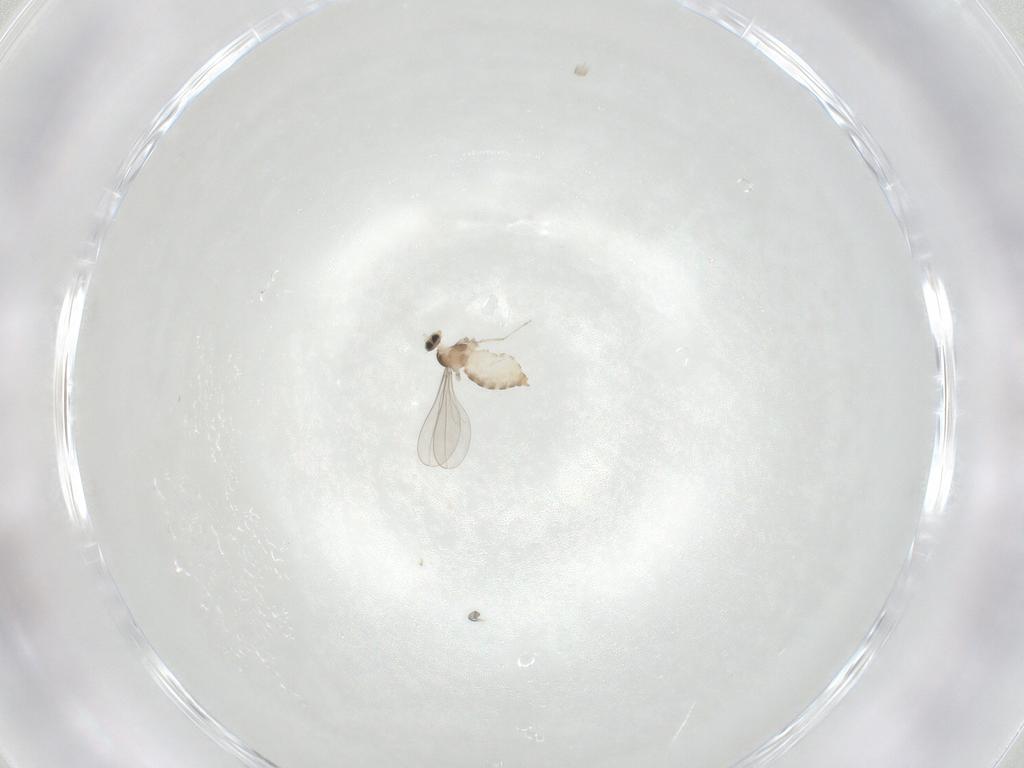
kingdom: Animalia
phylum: Arthropoda
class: Insecta
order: Diptera
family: Cecidomyiidae
